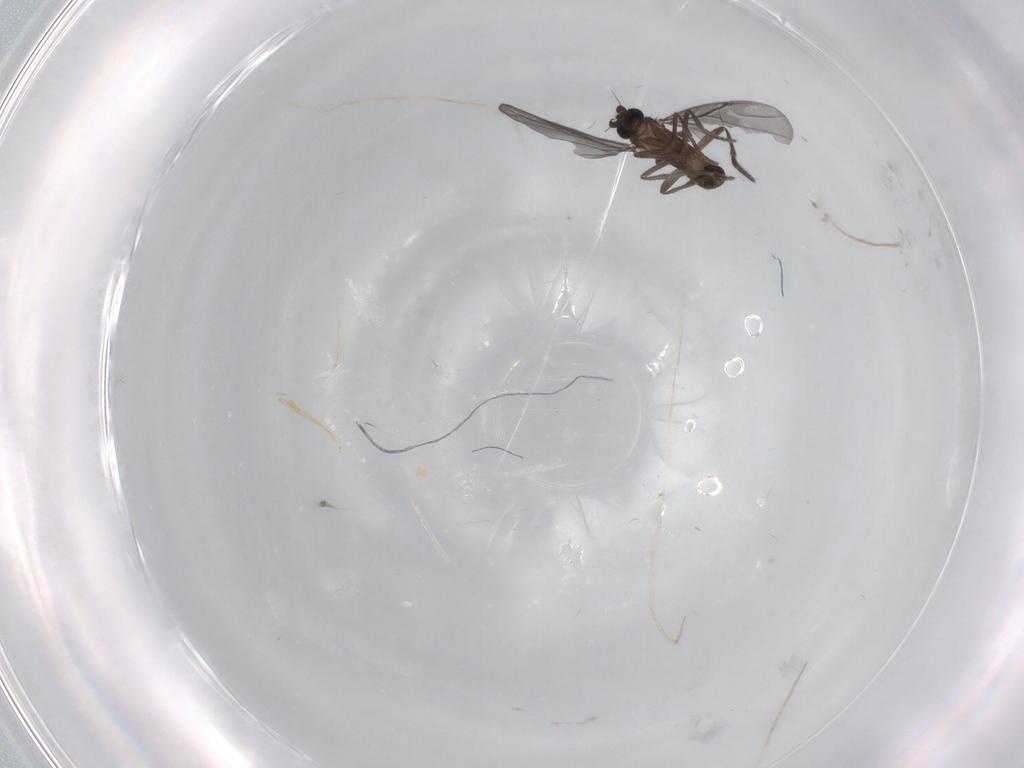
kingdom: Animalia
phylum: Arthropoda
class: Insecta
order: Diptera
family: Phoridae
